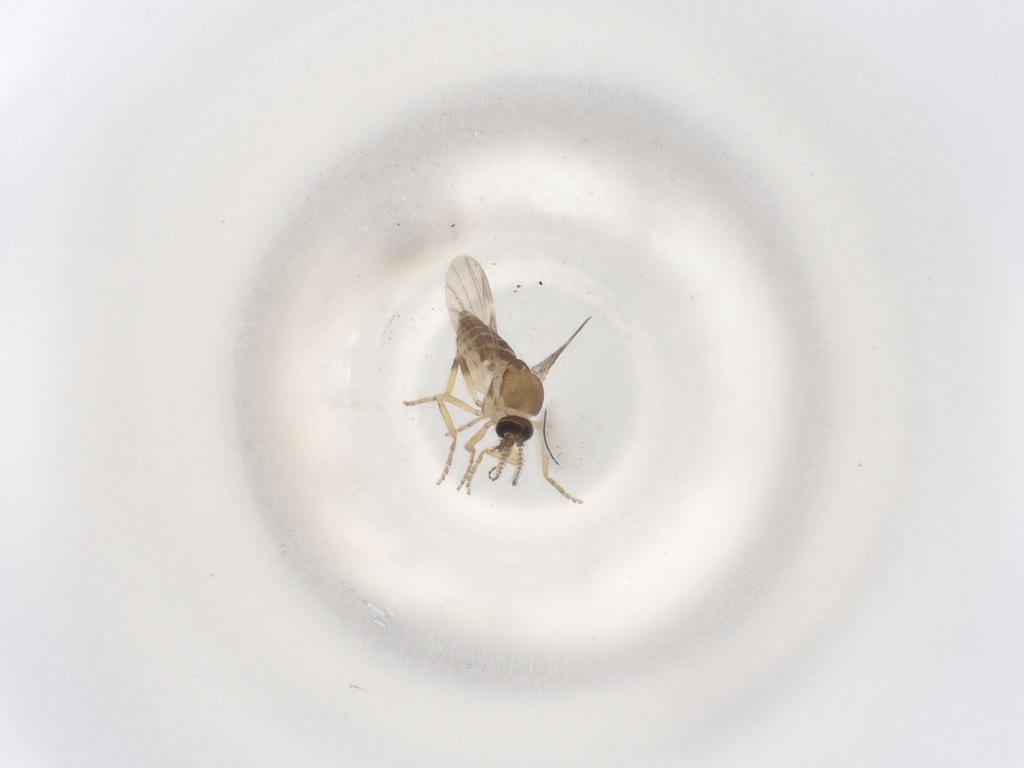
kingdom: Animalia
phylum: Arthropoda
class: Insecta
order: Diptera
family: Ceratopogonidae
